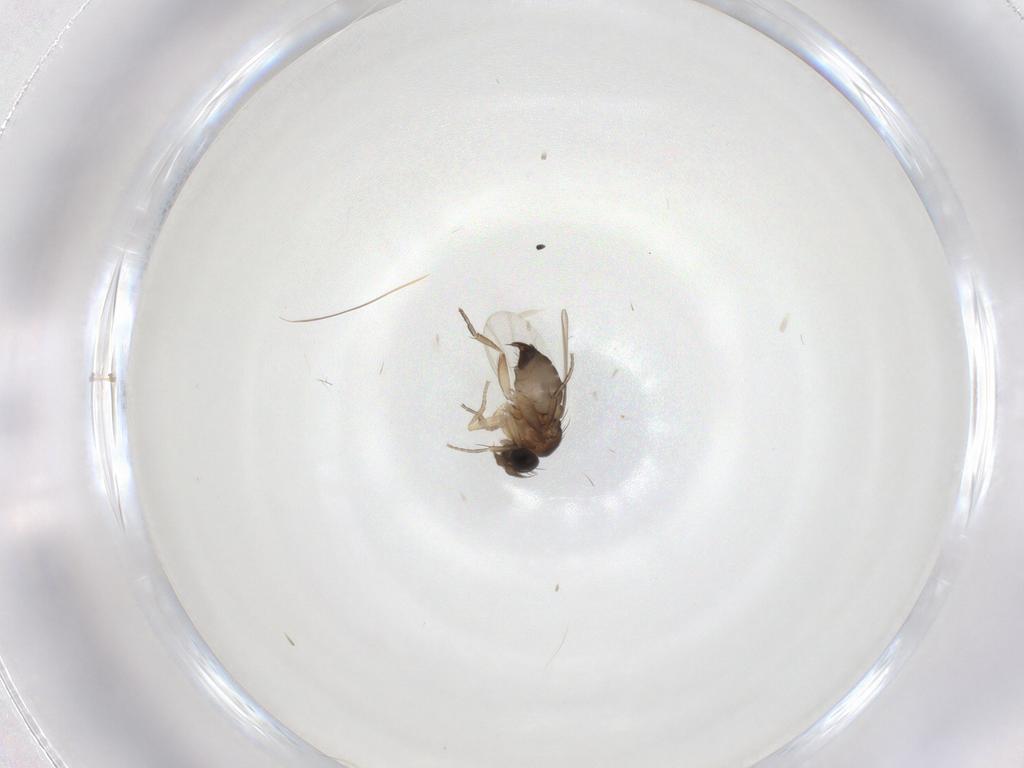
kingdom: Animalia
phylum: Arthropoda
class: Insecta
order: Diptera
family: Phoridae
